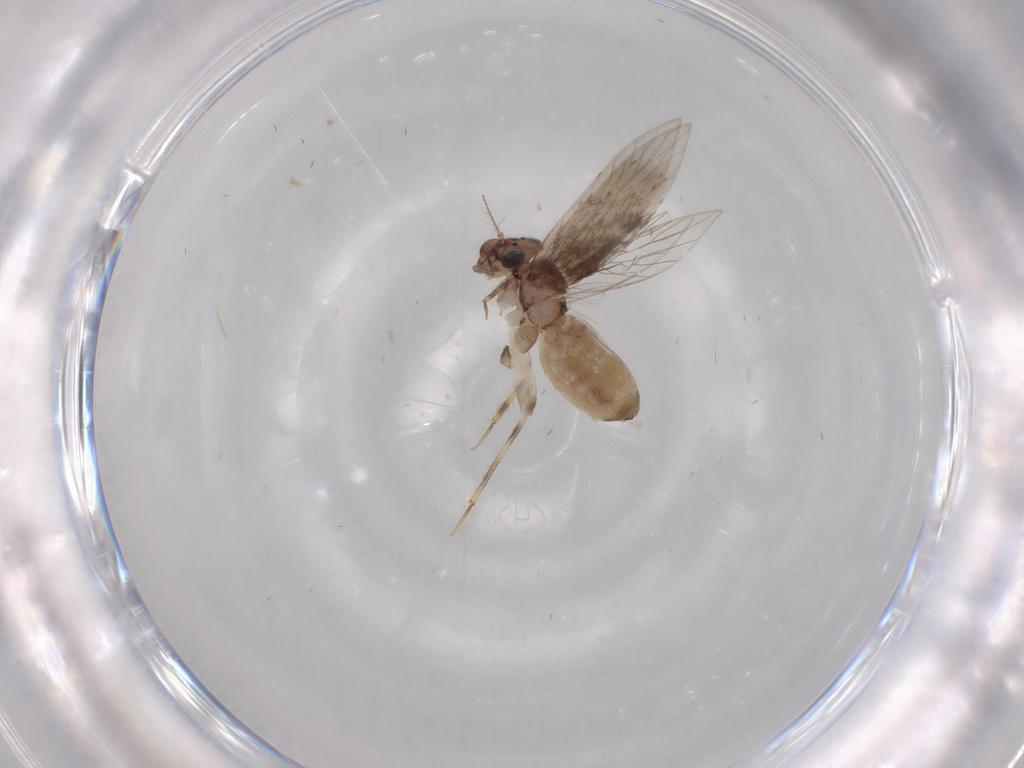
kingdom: Animalia
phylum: Arthropoda
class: Insecta
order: Psocodea
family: Lepidopsocidae
